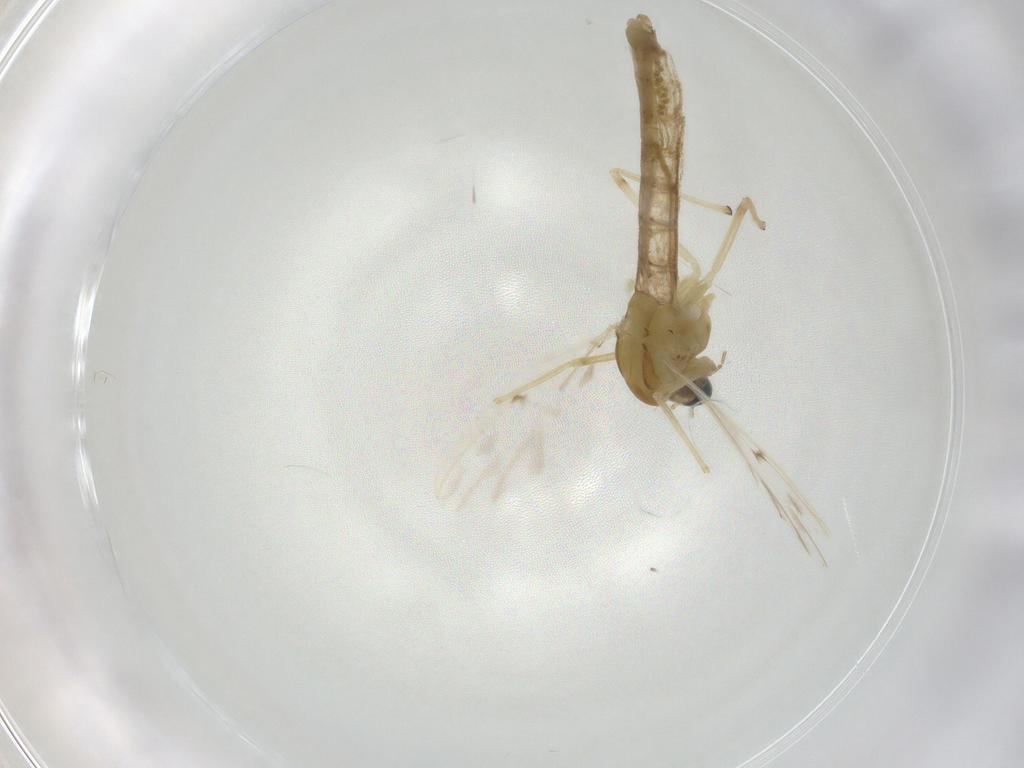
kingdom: Animalia
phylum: Arthropoda
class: Insecta
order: Diptera
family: Chironomidae
